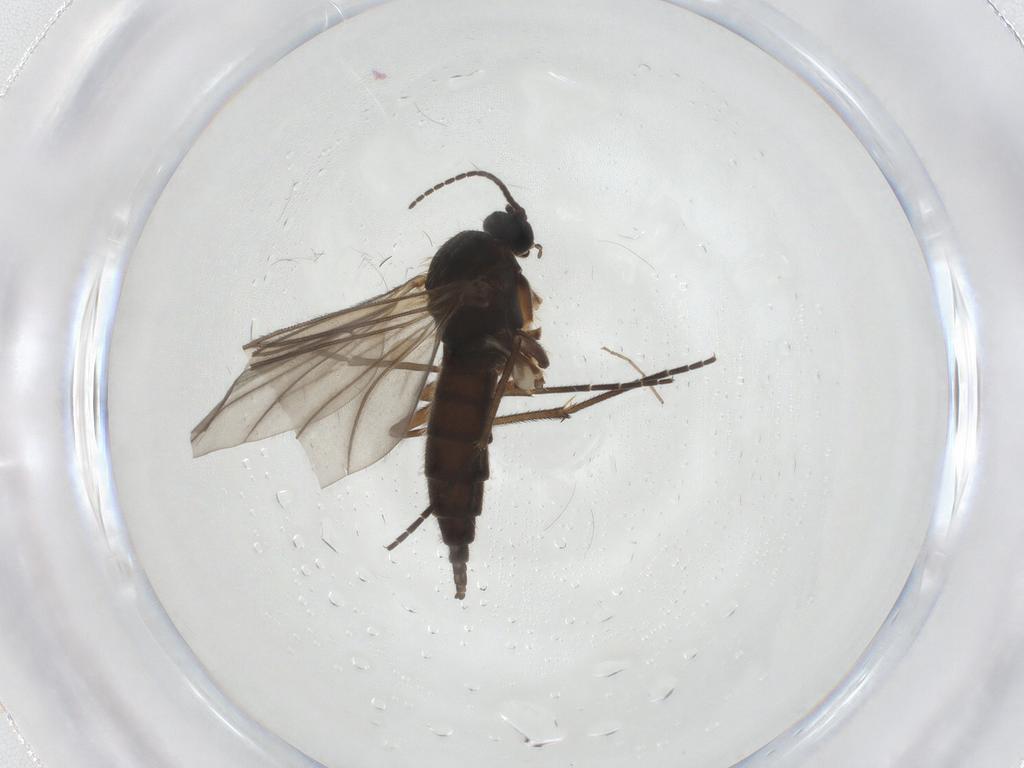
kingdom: Animalia
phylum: Arthropoda
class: Insecta
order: Diptera
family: Sciaridae
